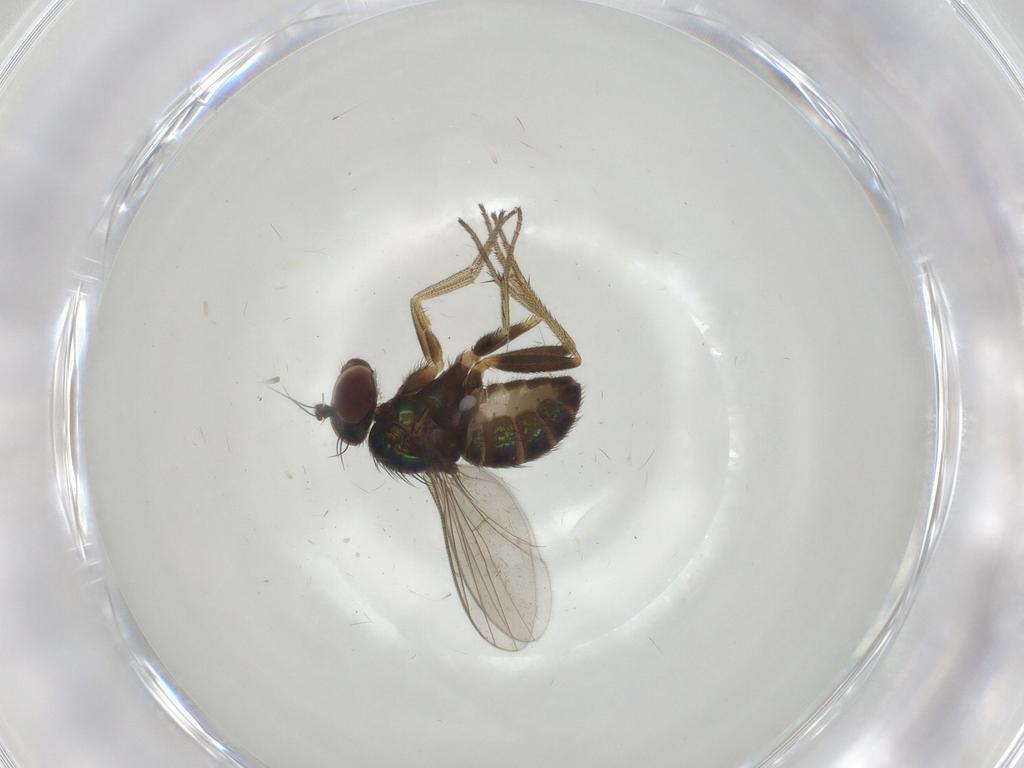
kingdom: Animalia
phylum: Arthropoda
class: Insecta
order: Diptera
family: Dolichopodidae
